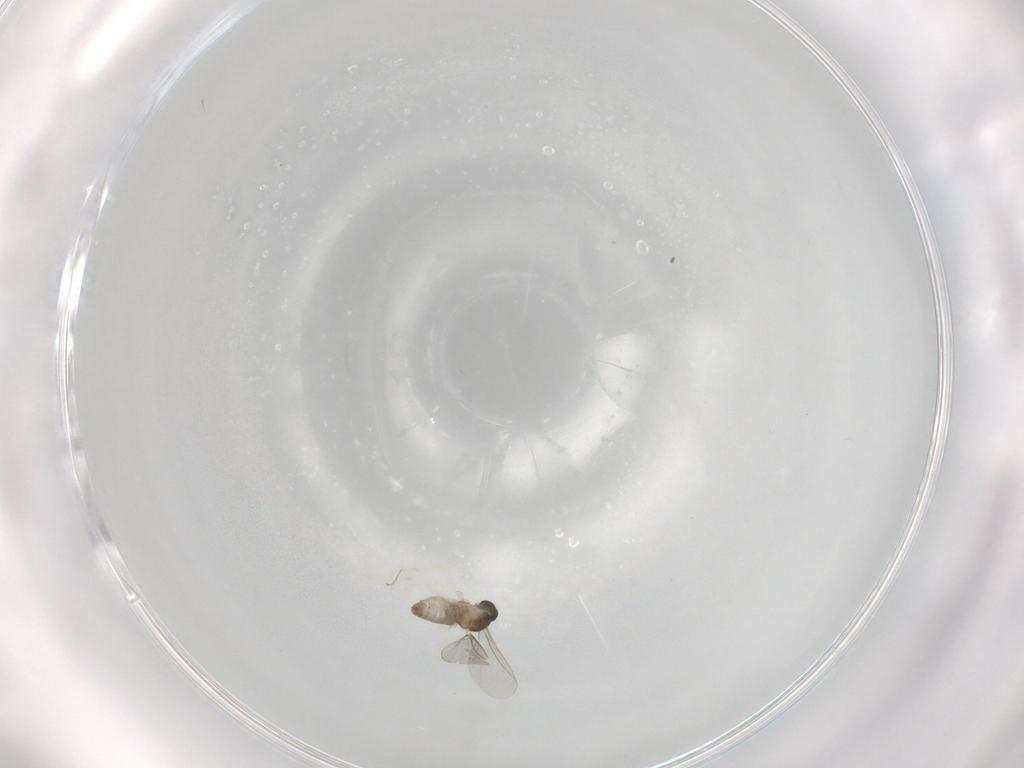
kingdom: Animalia
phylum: Arthropoda
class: Insecta
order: Diptera
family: Cecidomyiidae
